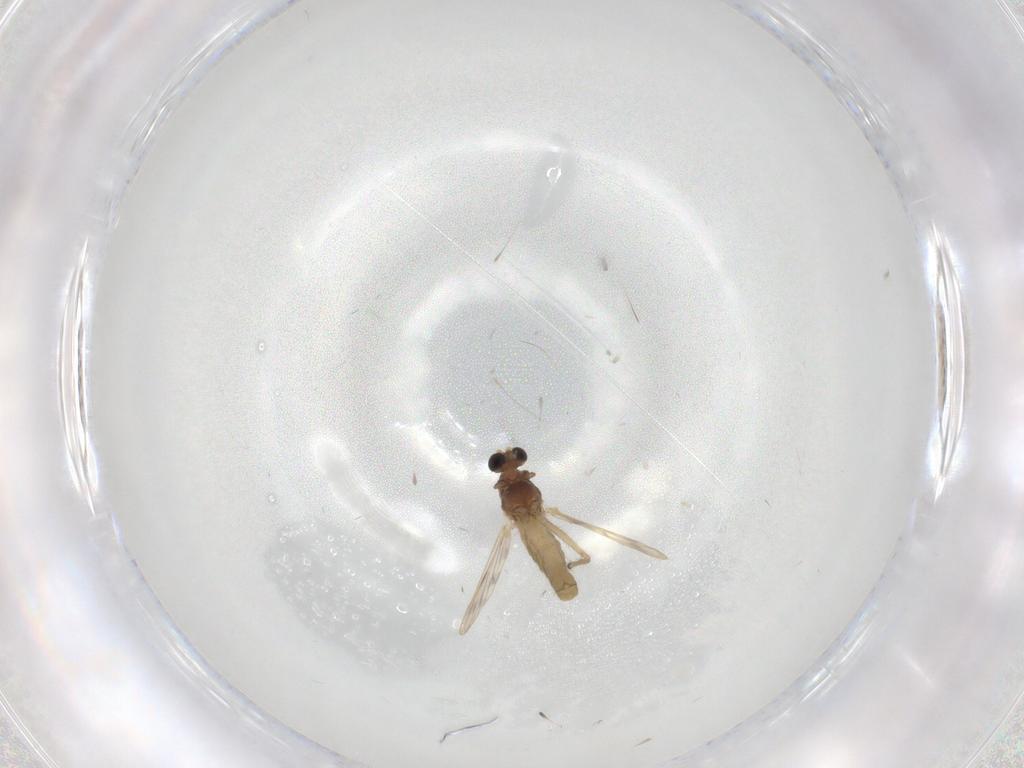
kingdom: Animalia
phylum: Arthropoda
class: Insecta
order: Diptera
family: Chironomidae
